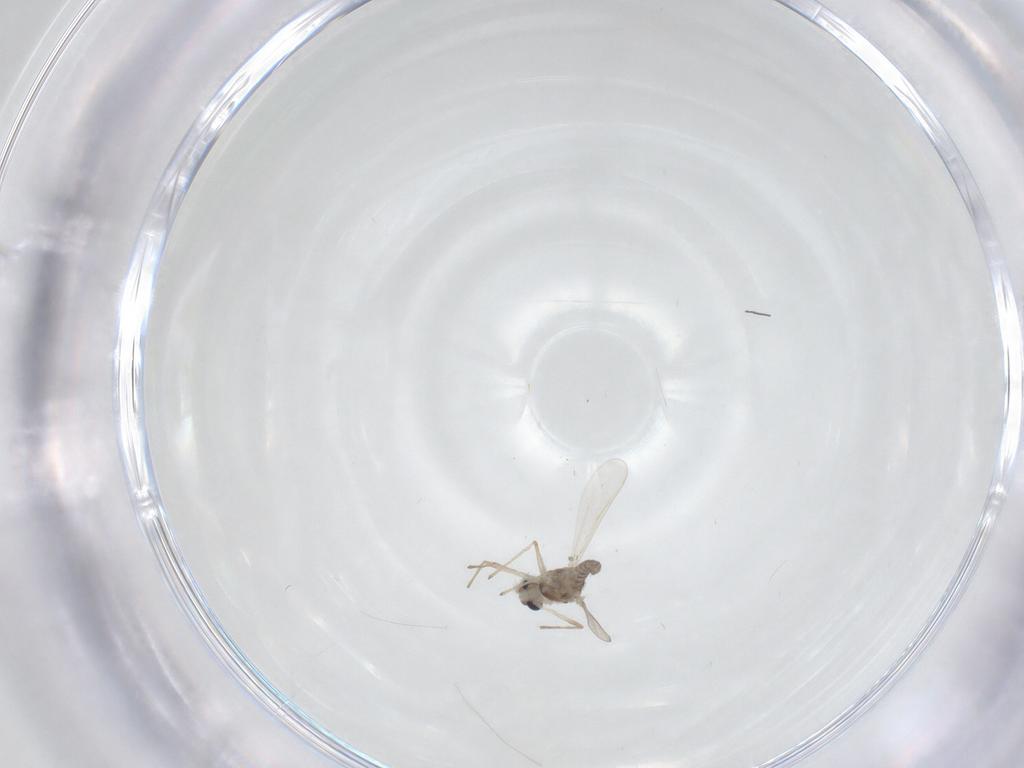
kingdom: Animalia
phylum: Arthropoda
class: Insecta
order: Diptera
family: Chironomidae
